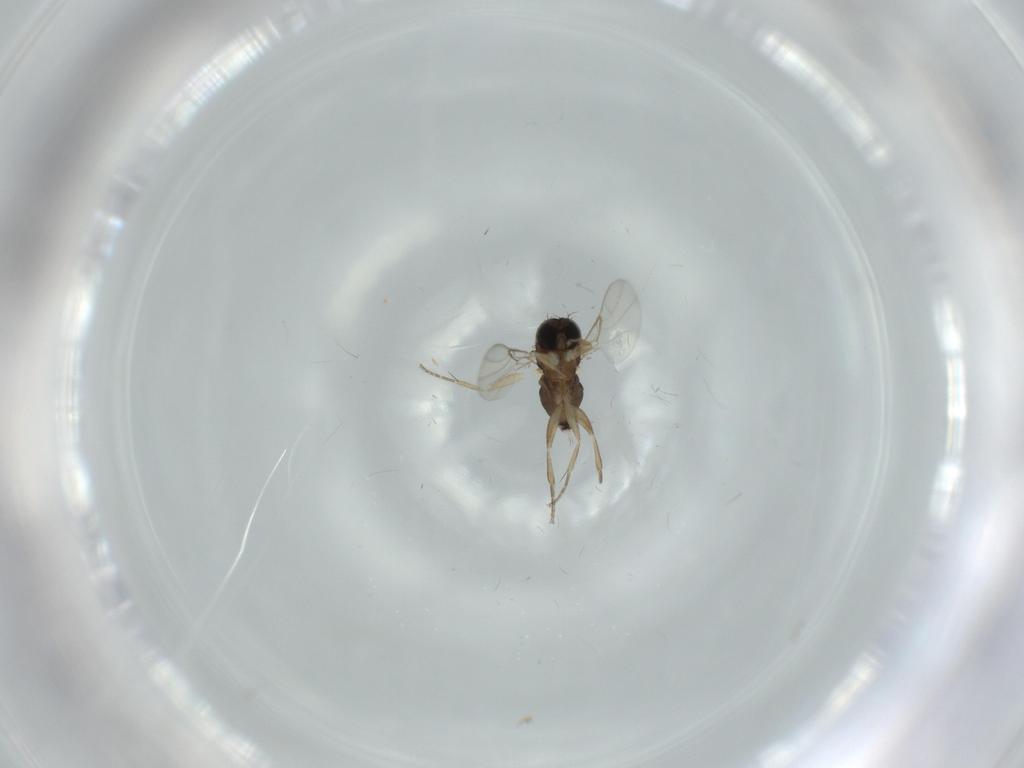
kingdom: Animalia
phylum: Arthropoda
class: Insecta
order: Diptera
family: Phoridae
